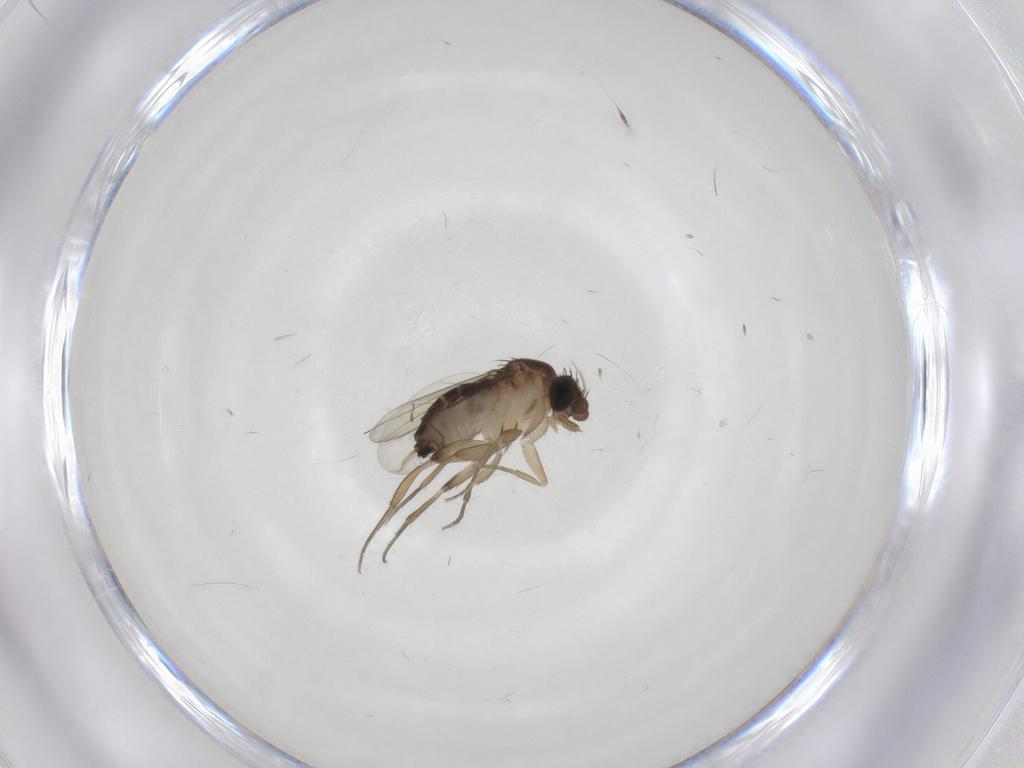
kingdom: Animalia
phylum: Arthropoda
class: Insecta
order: Diptera
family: Phoridae
